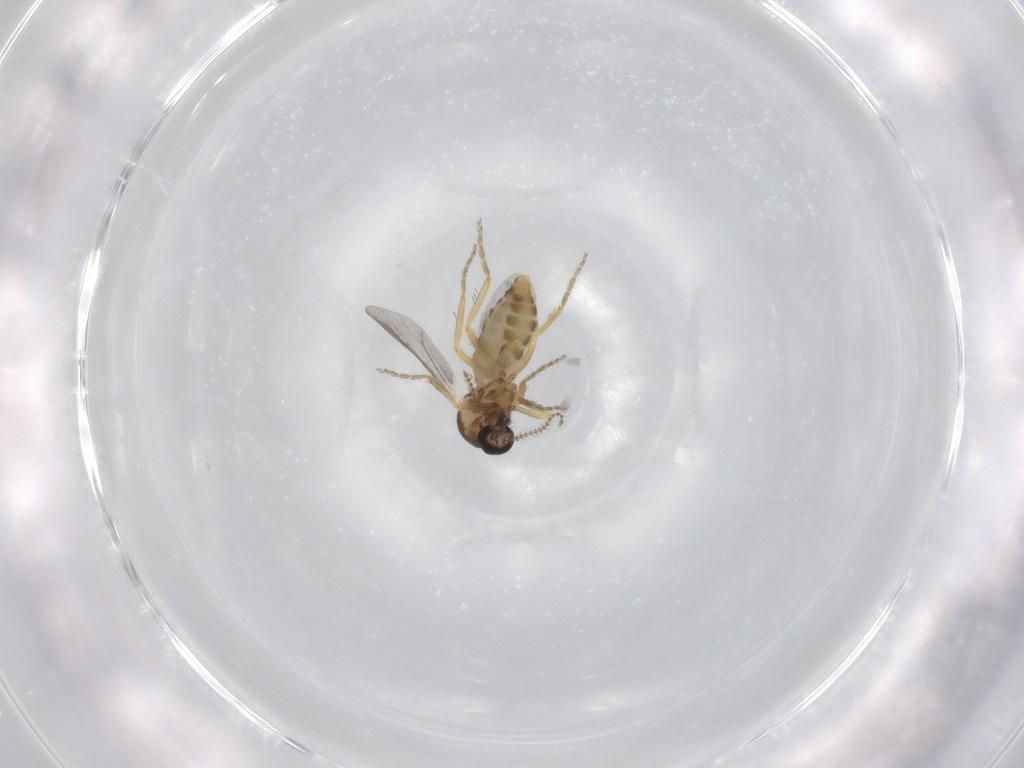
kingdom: Animalia
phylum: Arthropoda
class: Insecta
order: Diptera
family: Ceratopogonidae
